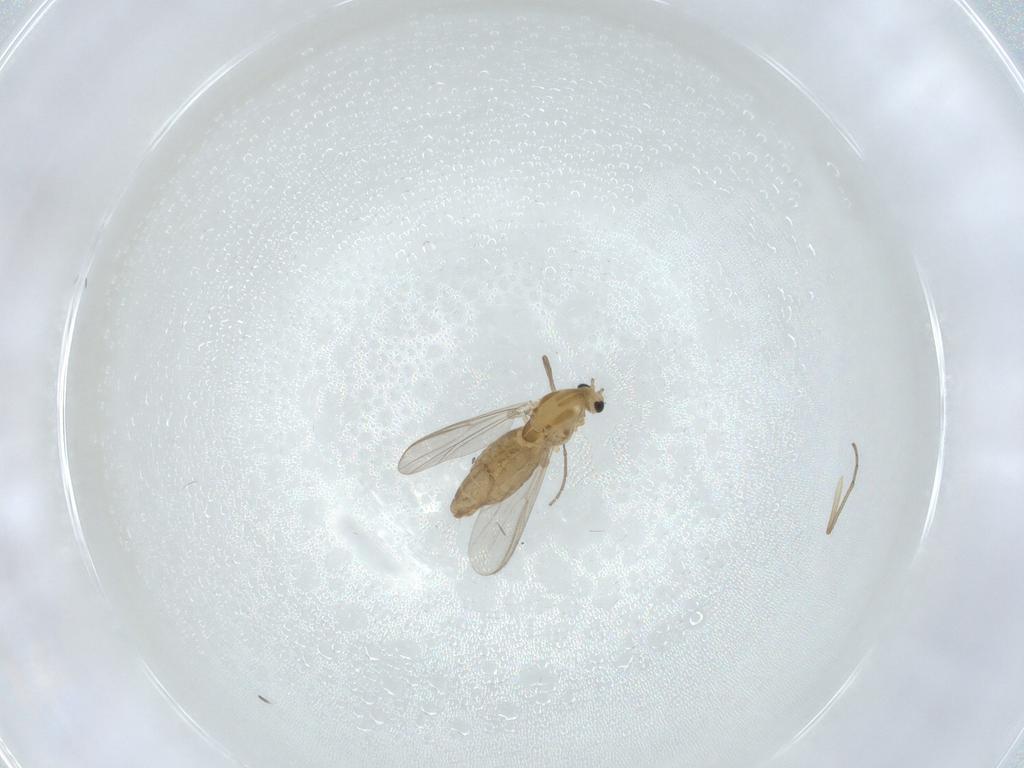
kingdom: Animalia
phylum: Arthropoda
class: Insecta
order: Diptera
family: Chironomidae
